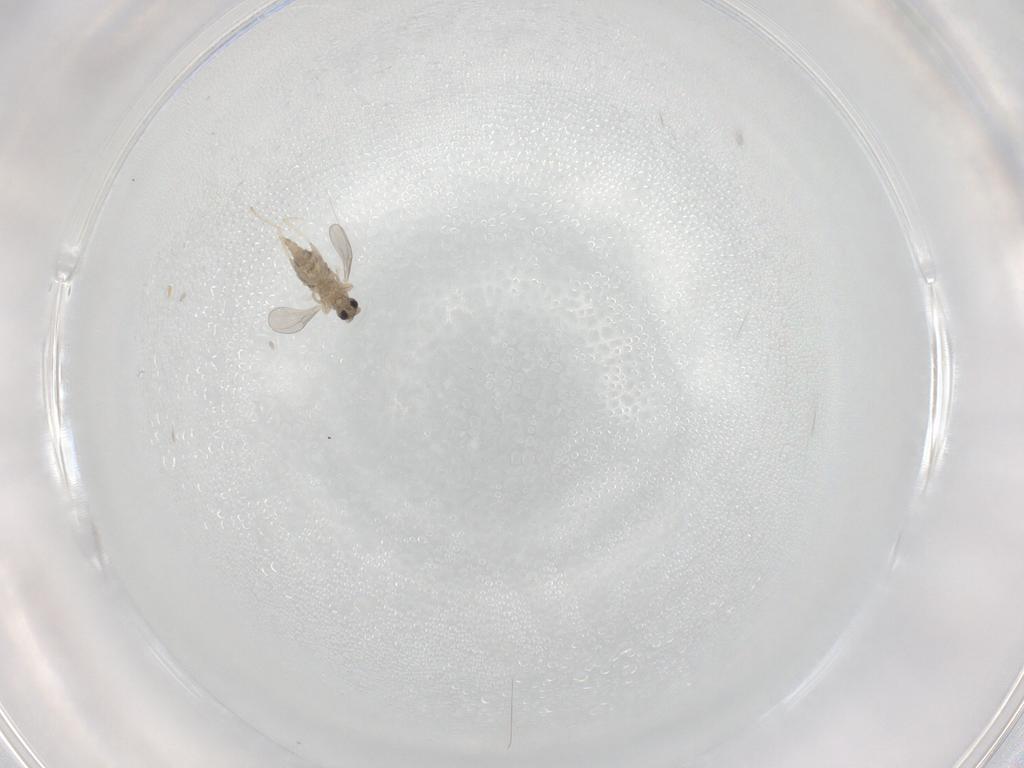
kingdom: Animalia
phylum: Arthropoda
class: Insecta
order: Diptera
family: Cecidomyiidae
